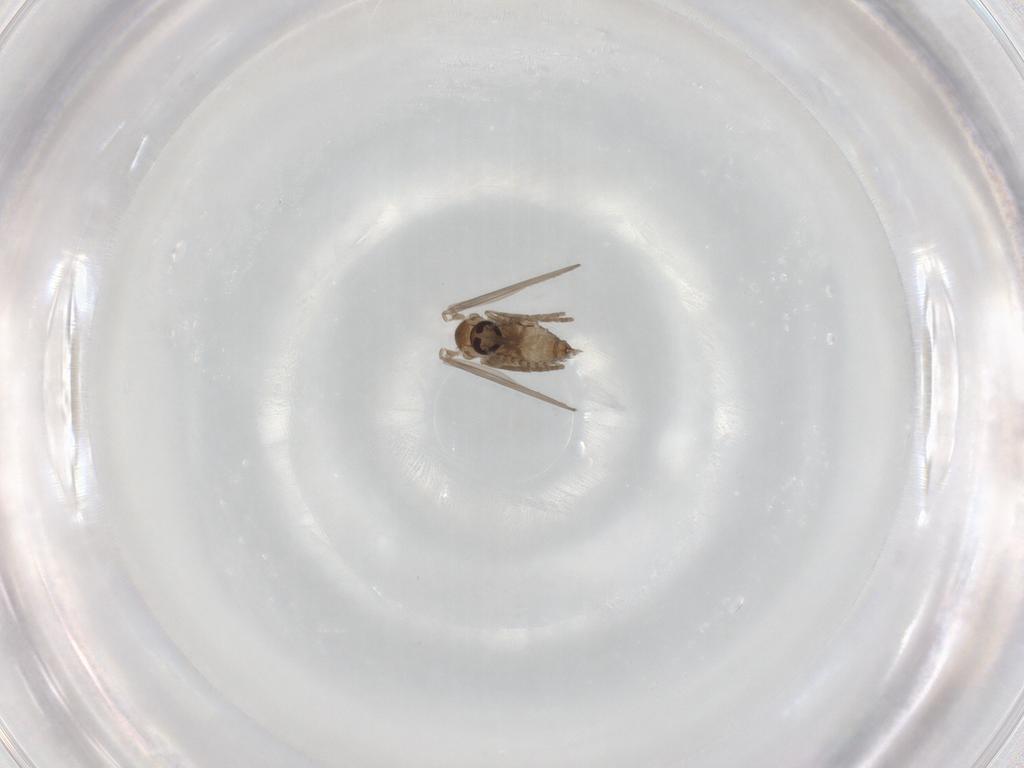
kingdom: Animalia
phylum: Arthropoda
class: Insecta
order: Diptera
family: Psychodidae
